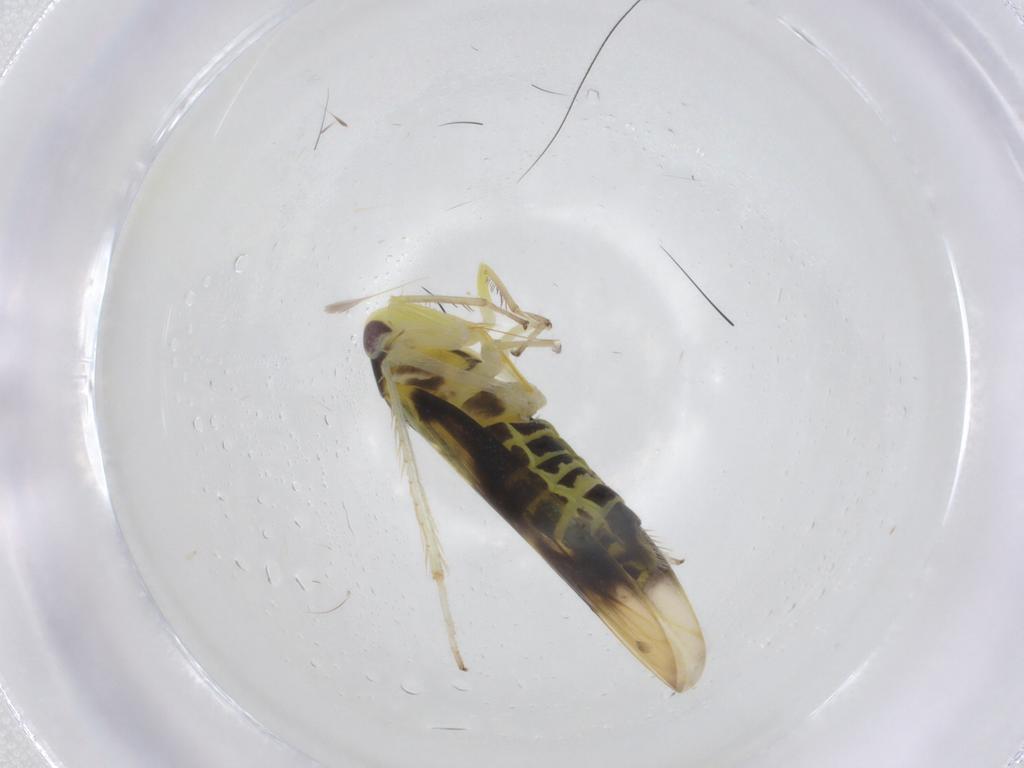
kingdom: Animalia
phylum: Arthropoda
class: Insecta
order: Hemiptera
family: Cicadellidae
